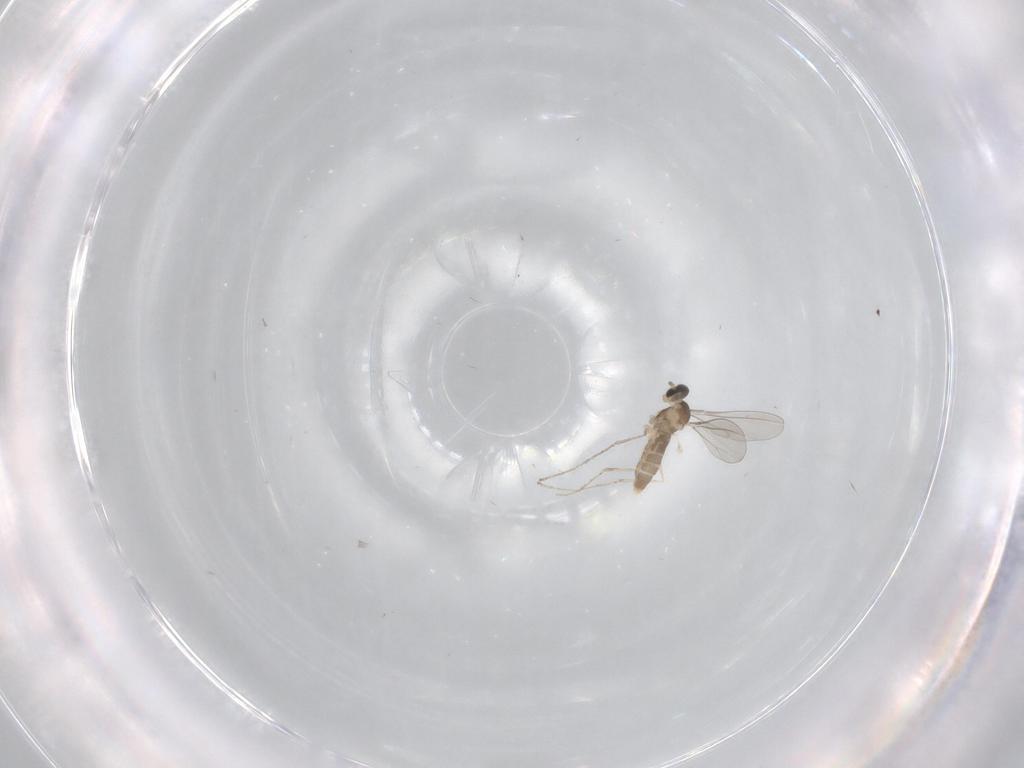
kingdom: Animalia
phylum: Arthropoda
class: Insecta
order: Diptera
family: Cecidomyiidae
